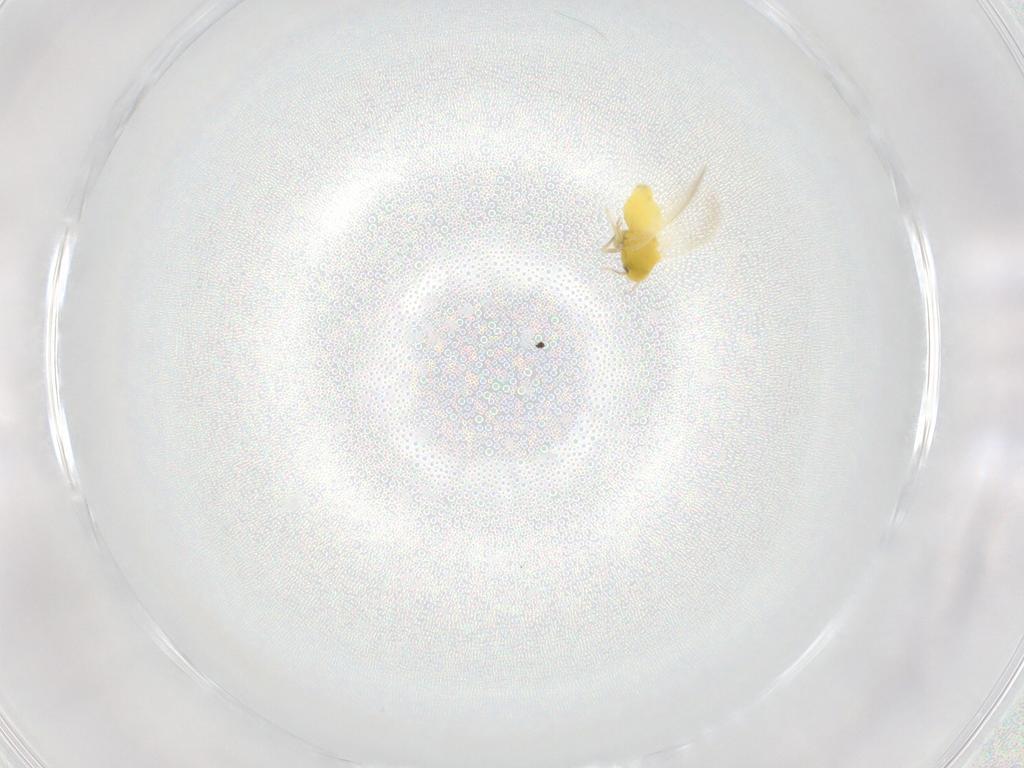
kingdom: Animalia
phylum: Arthropoda
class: Insecta
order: Hemiptera
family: Aleyrodidae
